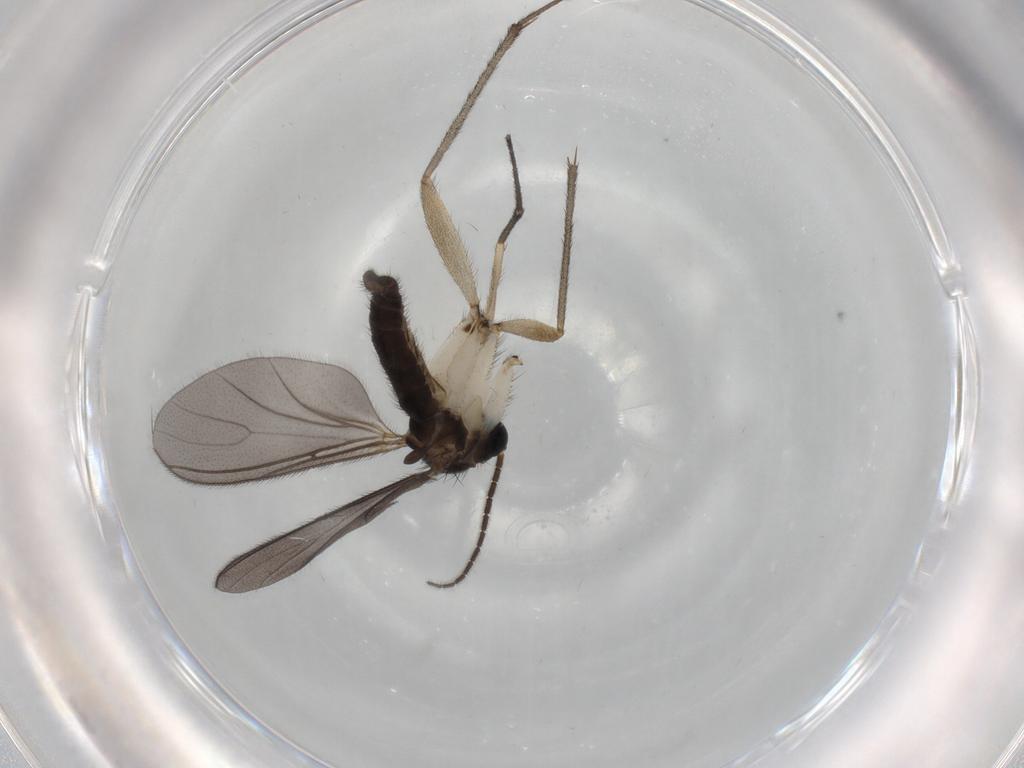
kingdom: Animalia
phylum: Arthropoda
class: Insecta
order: Diptera
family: Sciaridae
